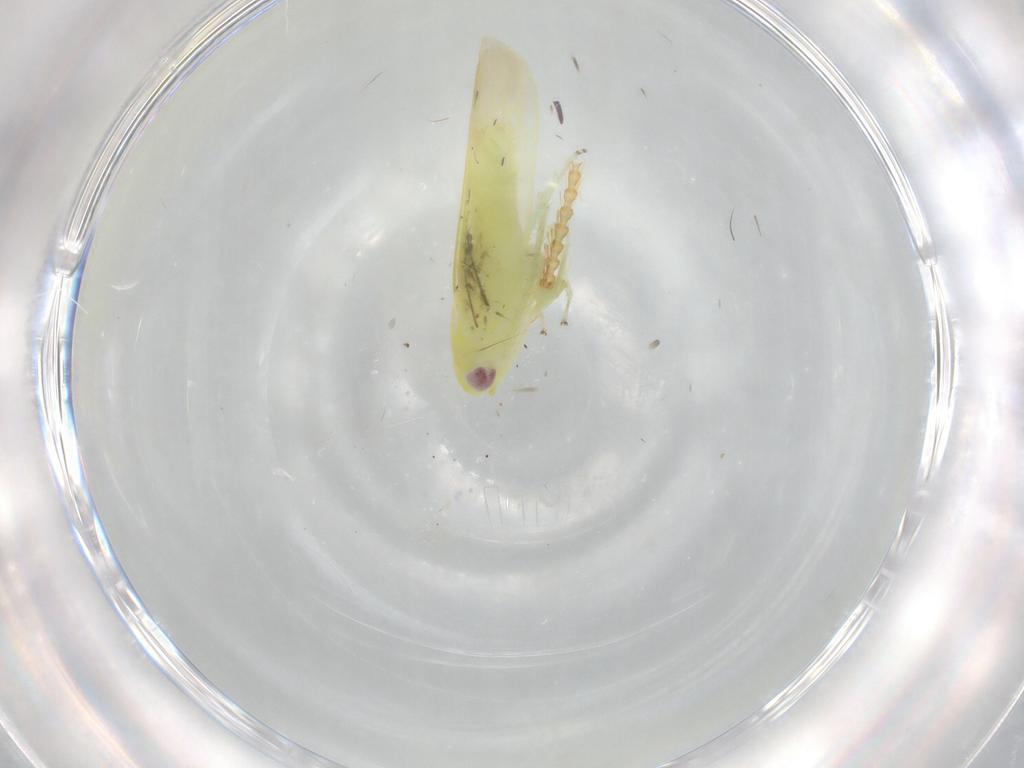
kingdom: Animalia
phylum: Arthropoda
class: Insecta
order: Hemiptera
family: Cicadellidae
